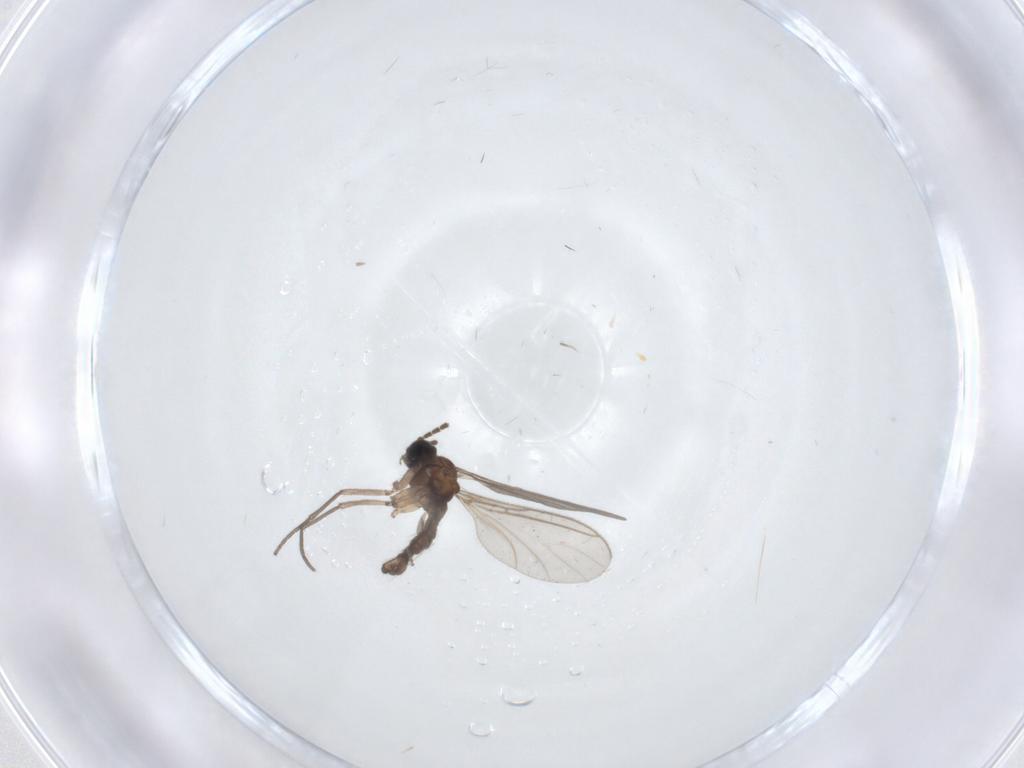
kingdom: Animalia
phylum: Arthropoda
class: Insecta
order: Diptera
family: Sciaridae
